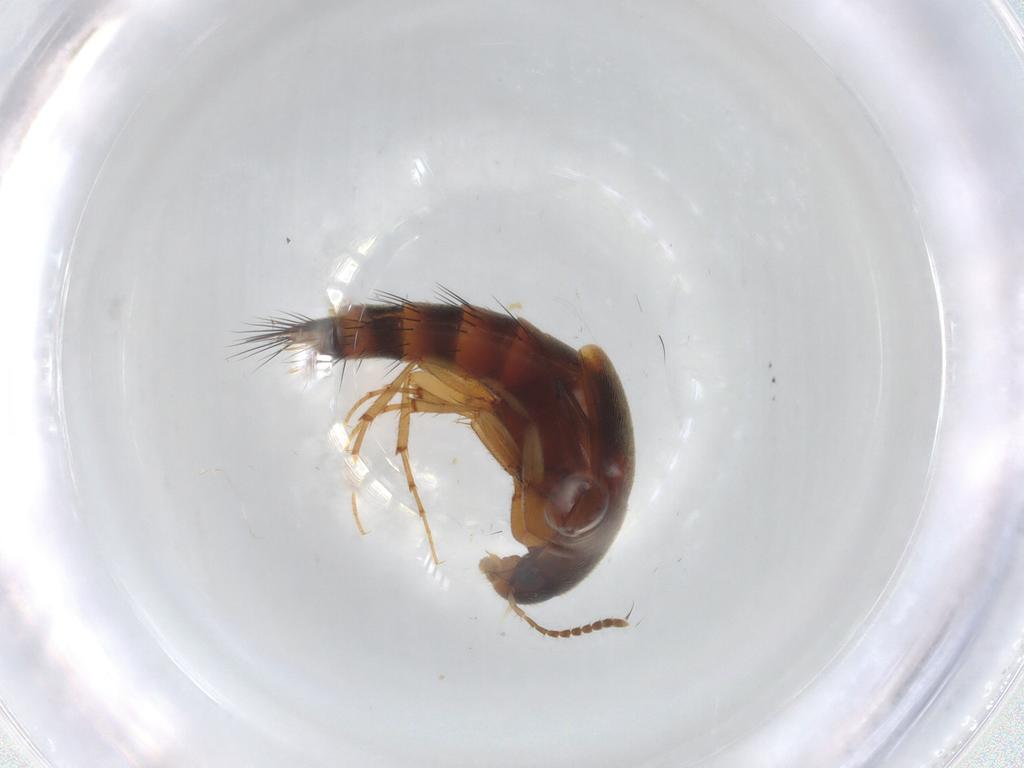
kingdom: Animalia
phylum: Arthropoda
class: Insecta
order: Coleoptera
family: Staphylinidae
